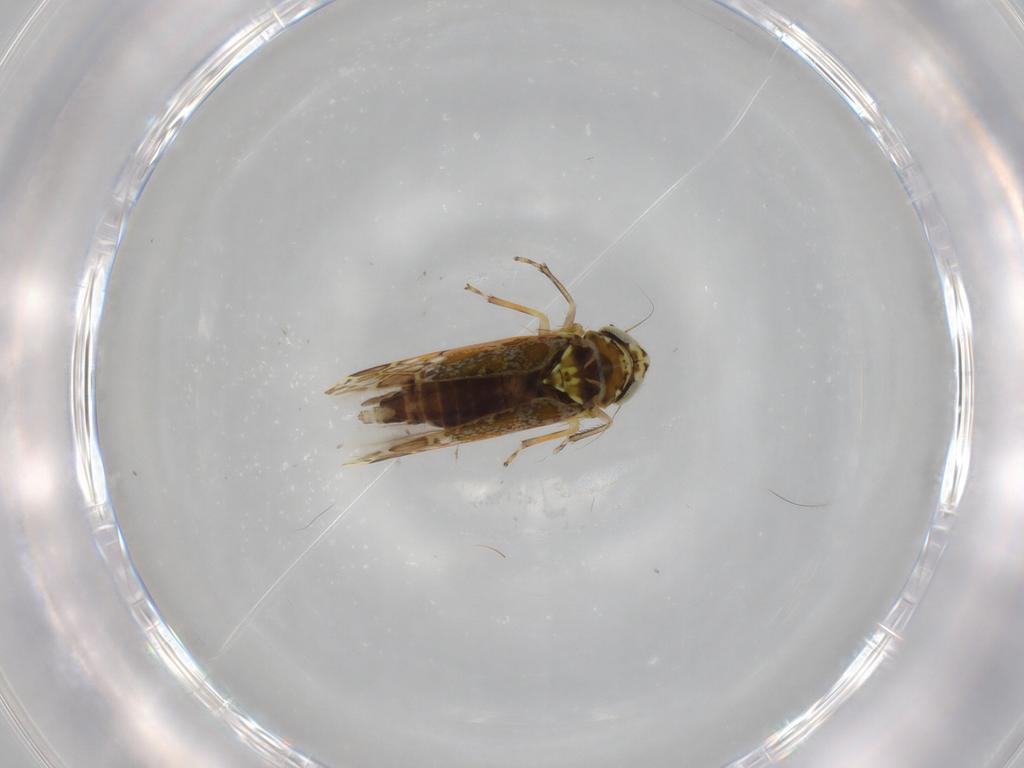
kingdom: Animalia
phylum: Arthropoda
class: Insecta
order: Hemiptera
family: Cicadellidae
